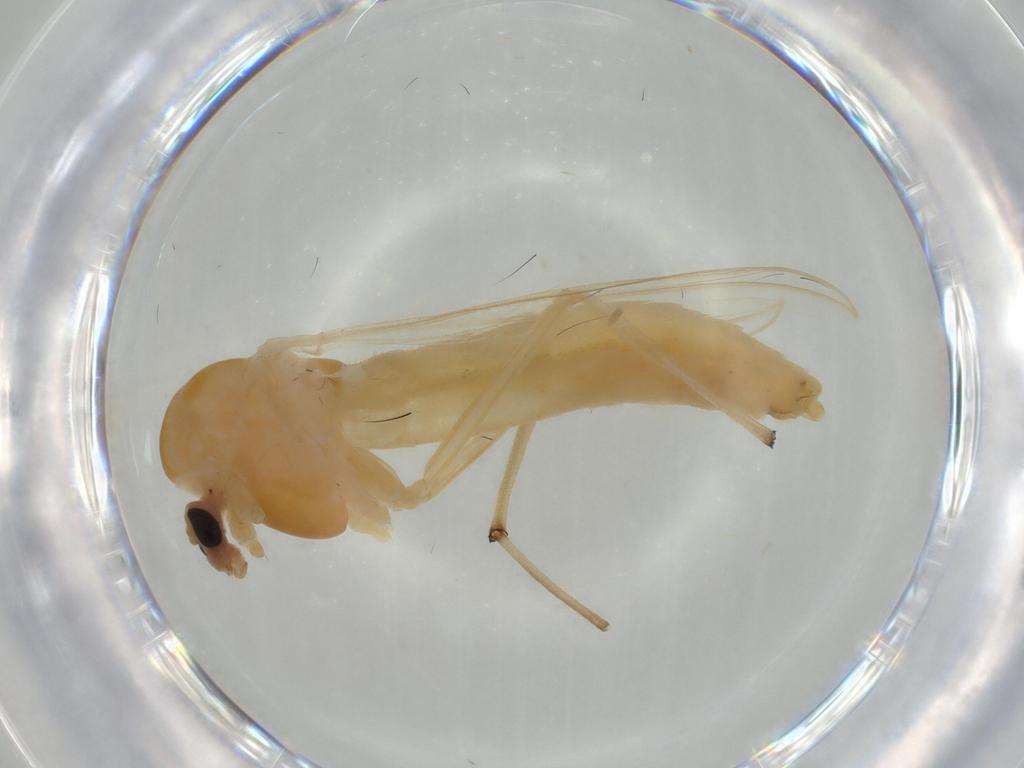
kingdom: Animalia
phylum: Arthropoda
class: Insecta
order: Diptera
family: Chironomidae
